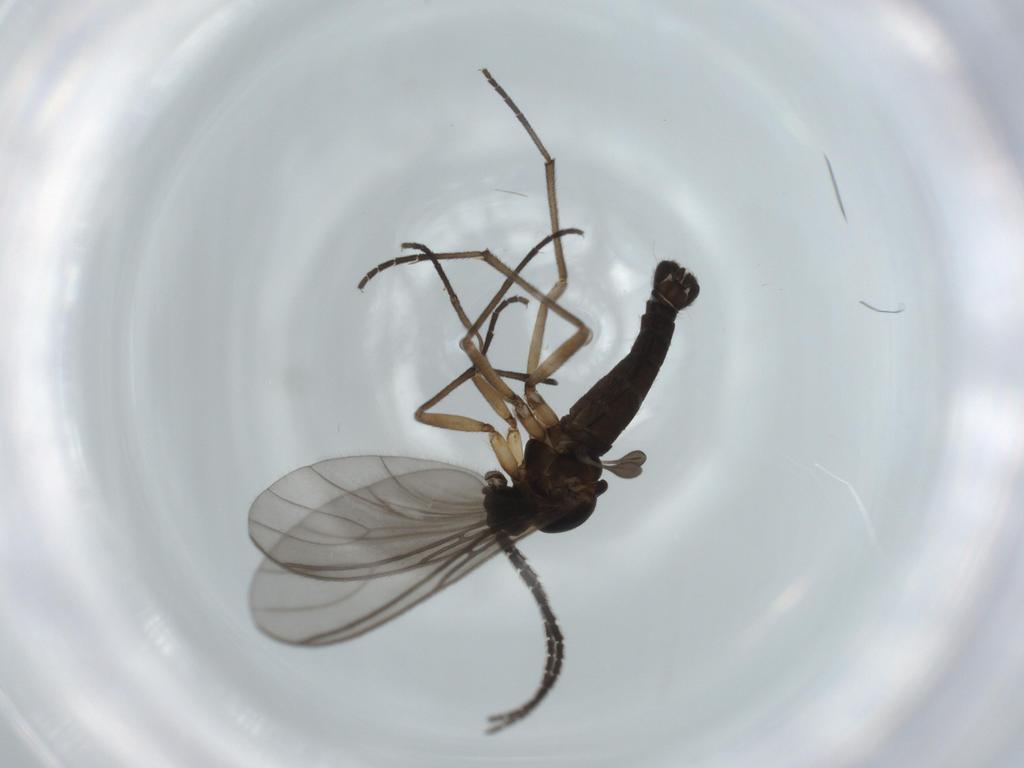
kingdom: Animalia
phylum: Arthropoda
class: Insecta
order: Diptera
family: Sciaridae
